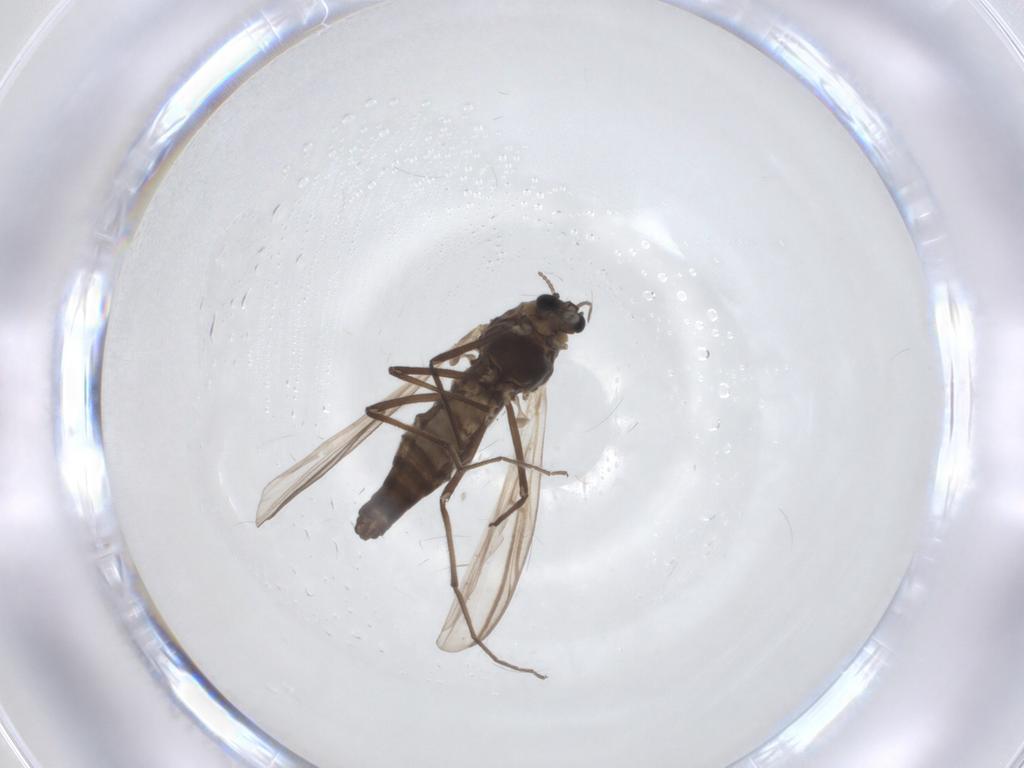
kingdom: Animalia
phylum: Arthropoda
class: Insecta
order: Diptera
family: Chironomidae
